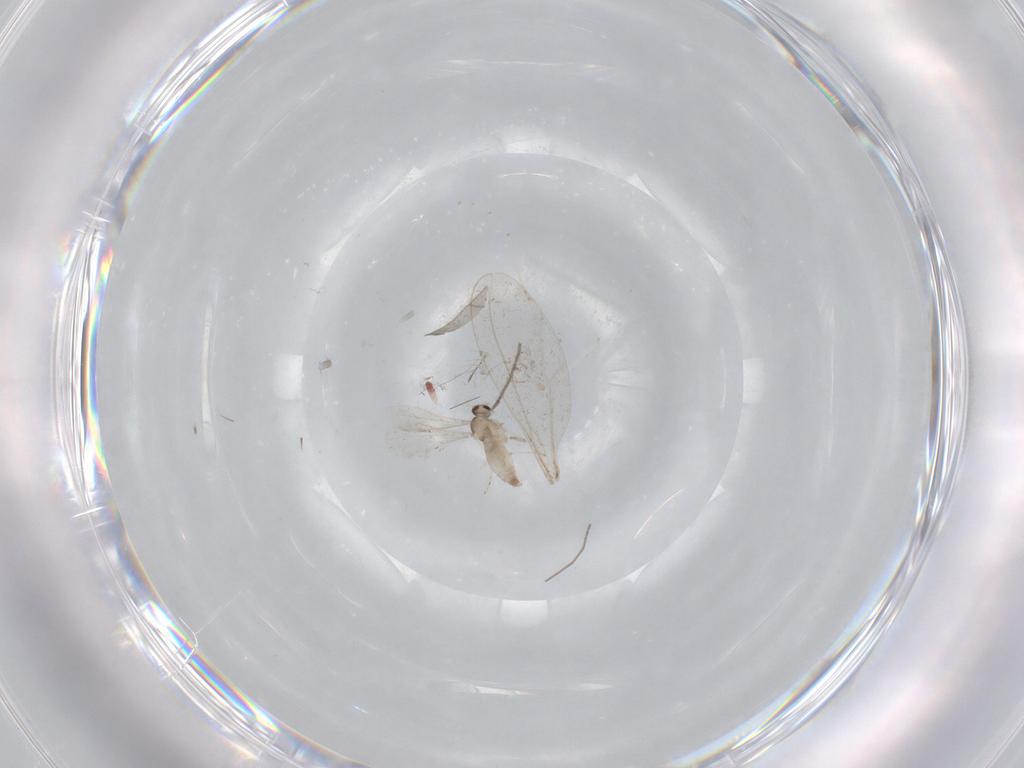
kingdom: Animalia
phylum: Arthropoda
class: Insecta
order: Diptera
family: Cecidomyiidae
